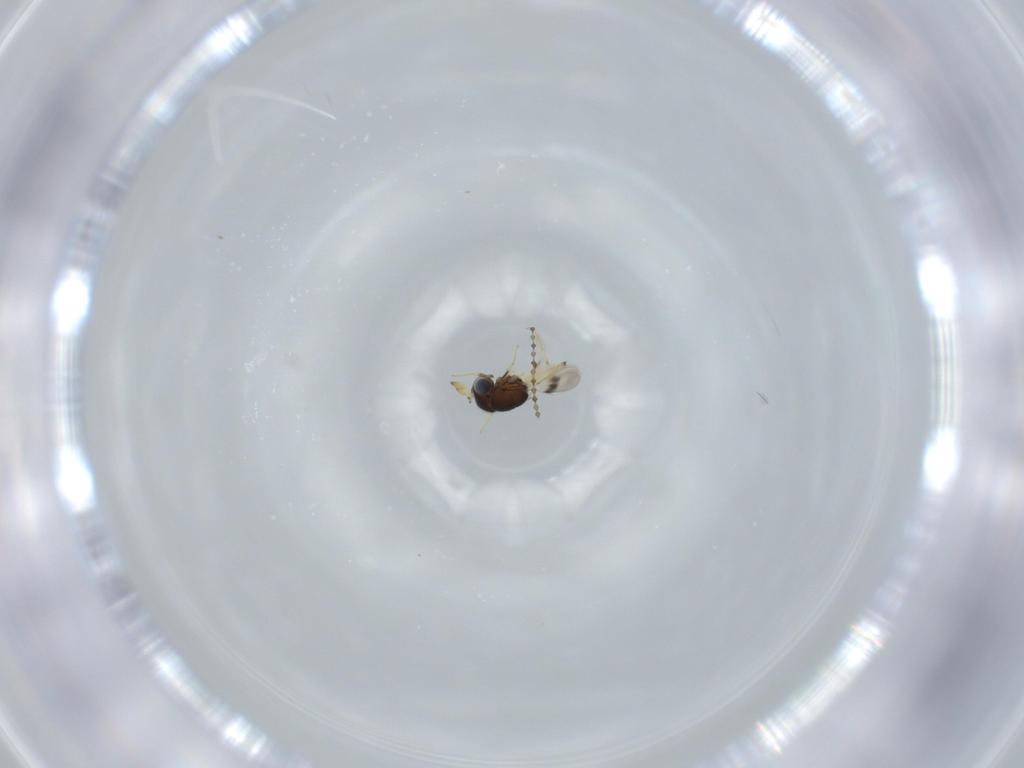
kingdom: Animalia
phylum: Arthropoda
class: Insecta
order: Hymenoptera
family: Scelionidae
